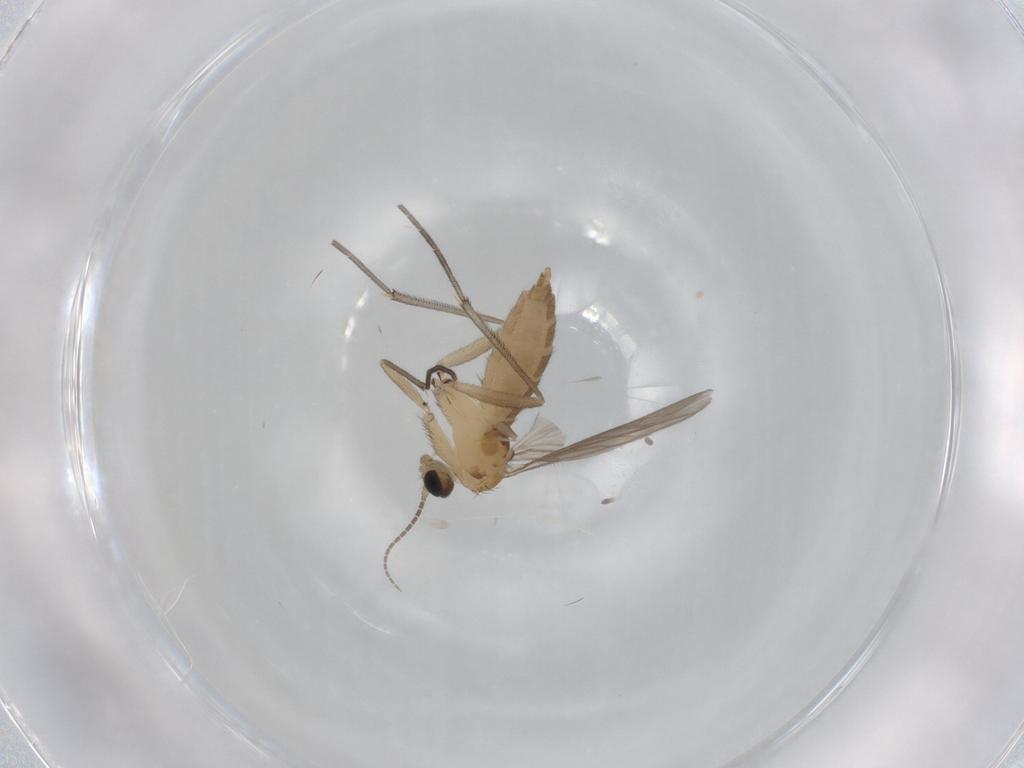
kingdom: Animalia
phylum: Arthropoda
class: Insecta
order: Diptera
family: Sciaridae
